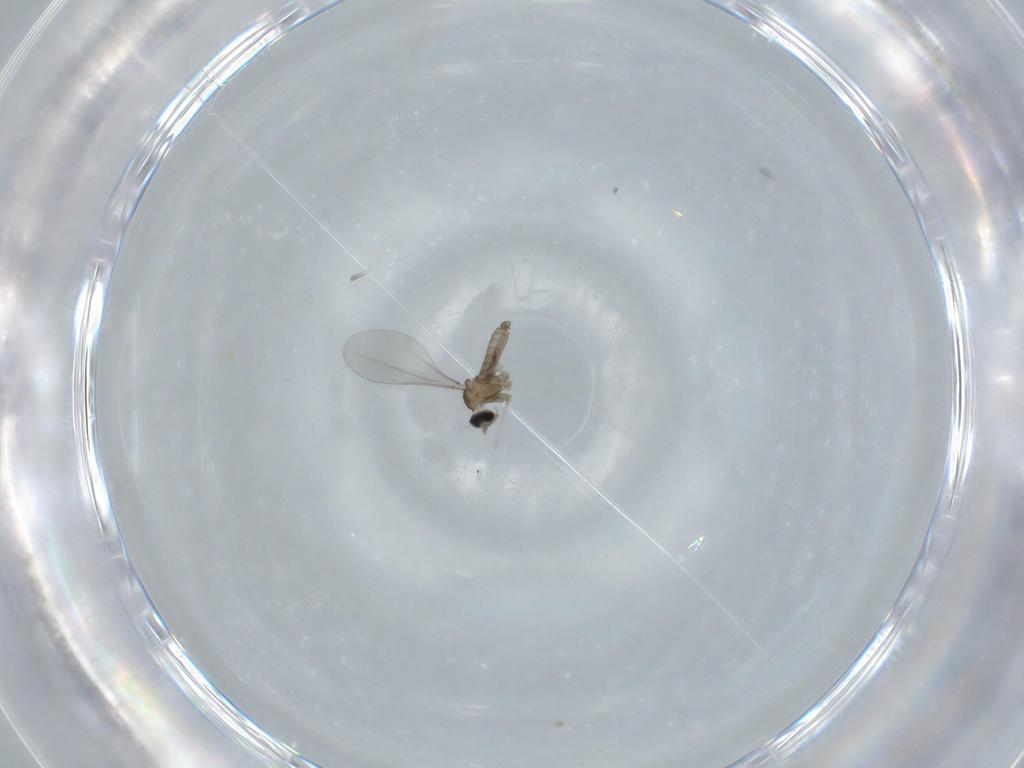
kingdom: Animalia
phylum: Arthropoda
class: Insecta
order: Diptera
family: Cecidomyiidae
